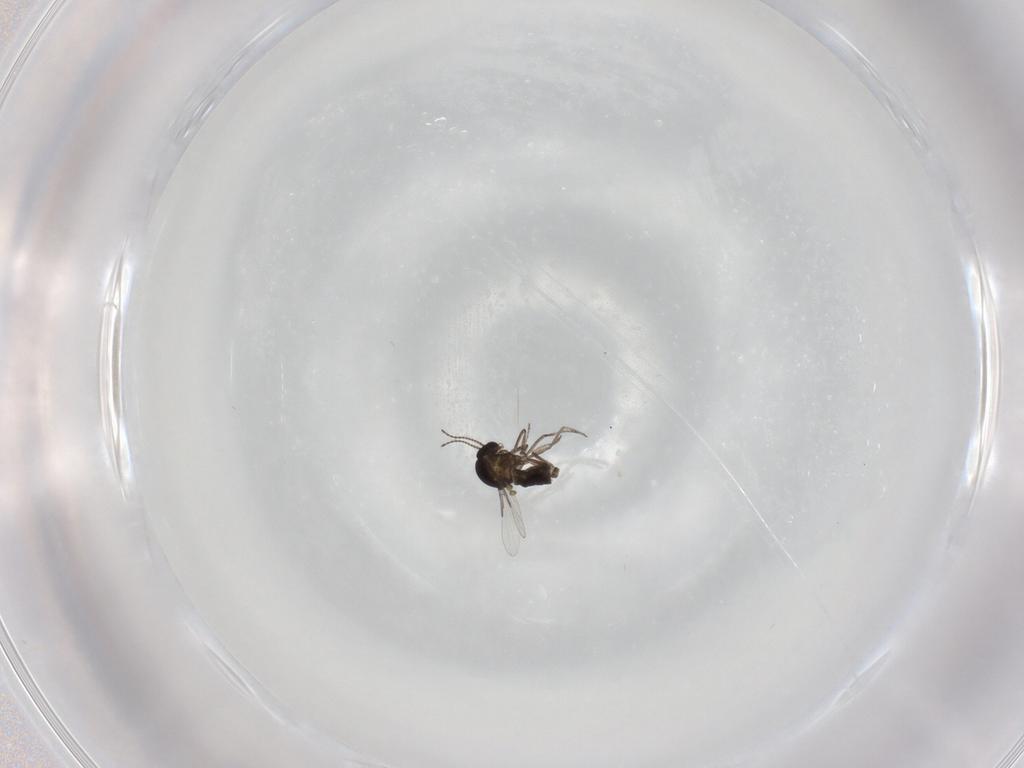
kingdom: Animalia
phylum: Arthropoda
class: Insecta
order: Diptera
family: Ceratopogonidae
